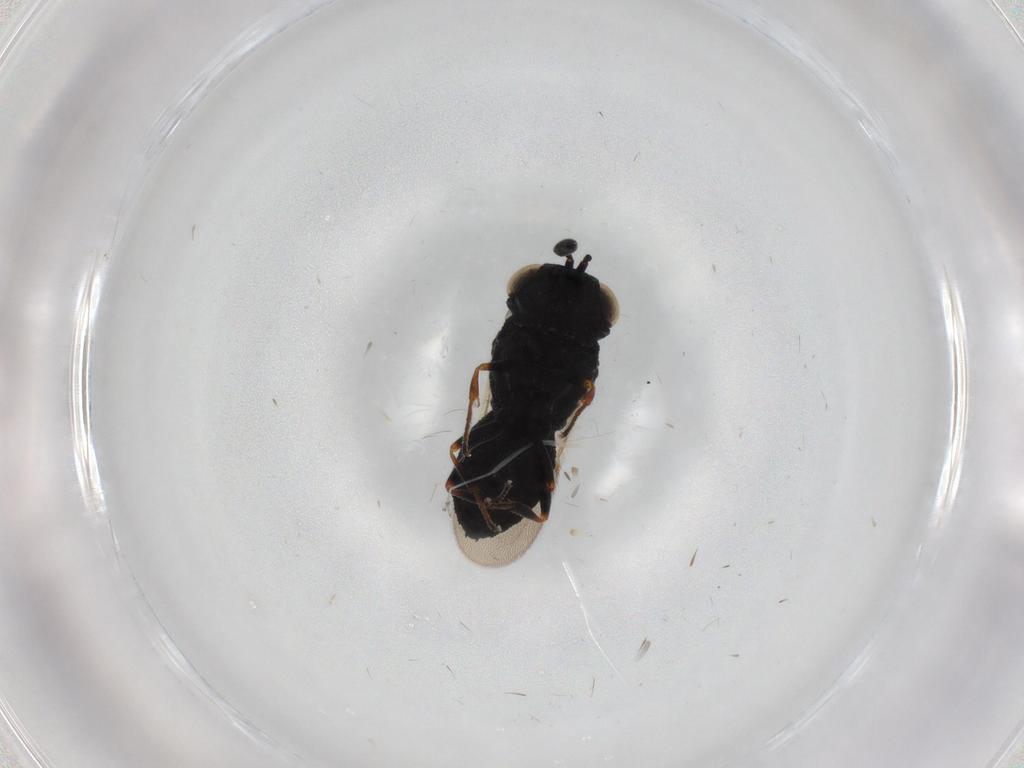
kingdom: Animalia
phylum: Arthropoda
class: Insecta
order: Hymenoptera
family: Scelionidae
